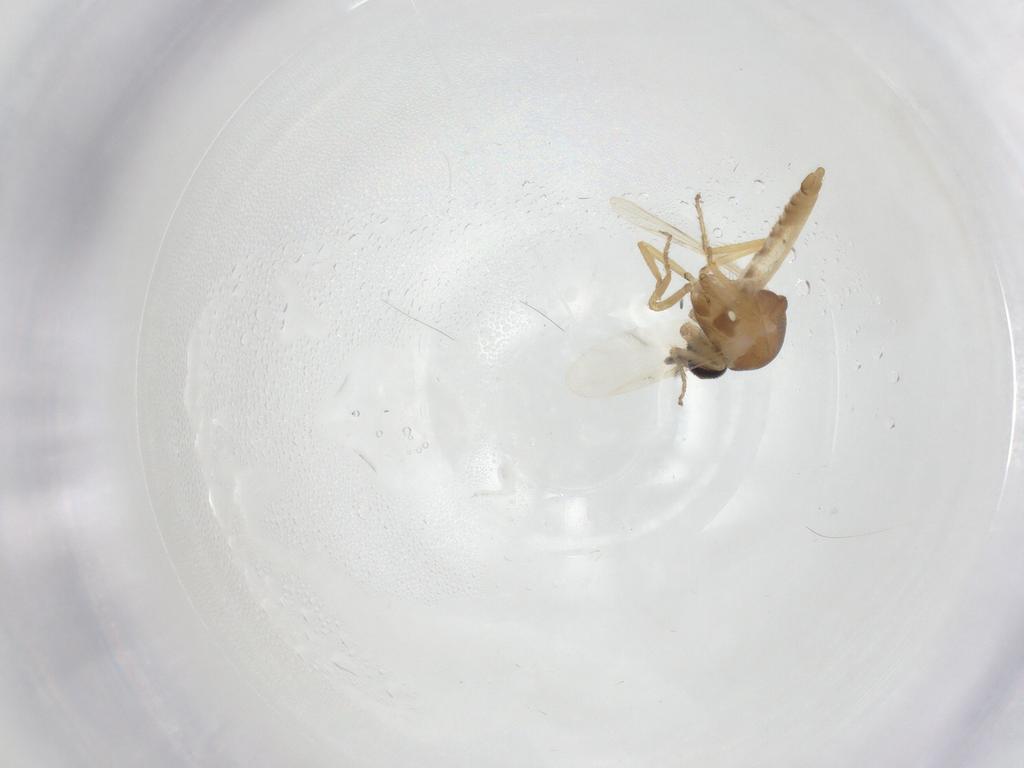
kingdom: Animalia
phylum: Arthropoda
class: Insecta
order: Diptera
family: Ceratopogonidae
